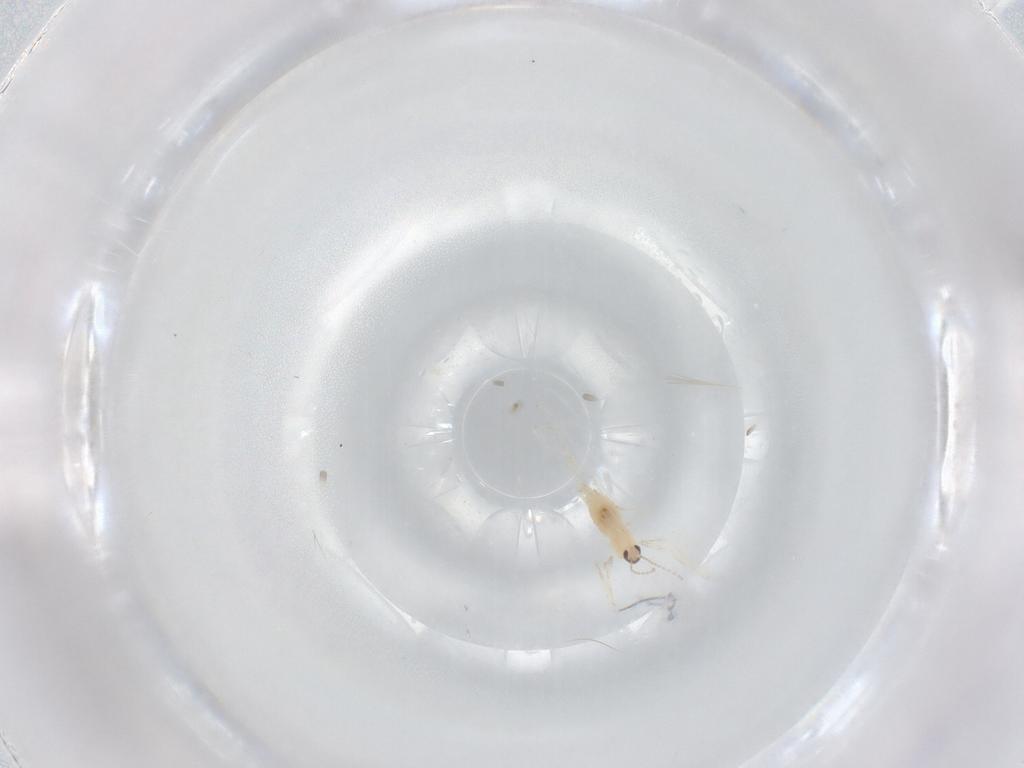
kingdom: Animalia
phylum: Arthropoda
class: Insecta
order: Diptera
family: Cecidomyiidae
